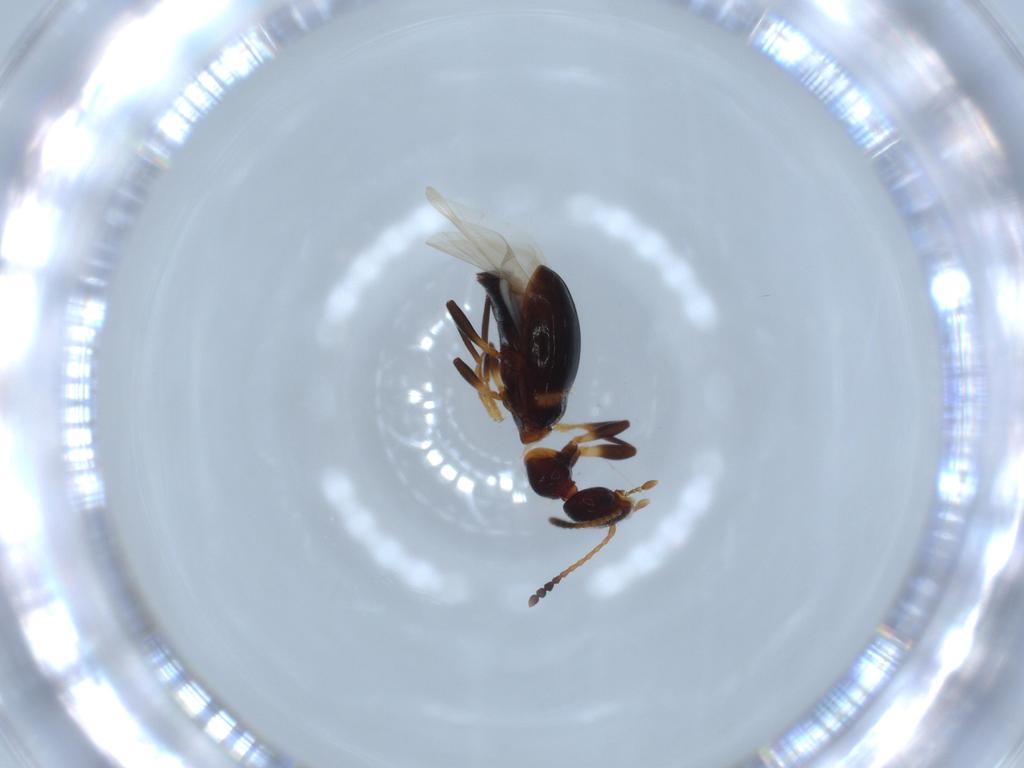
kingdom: Animalia
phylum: Arthropoda
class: Insecta
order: Coleoptera
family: Anthicidae
